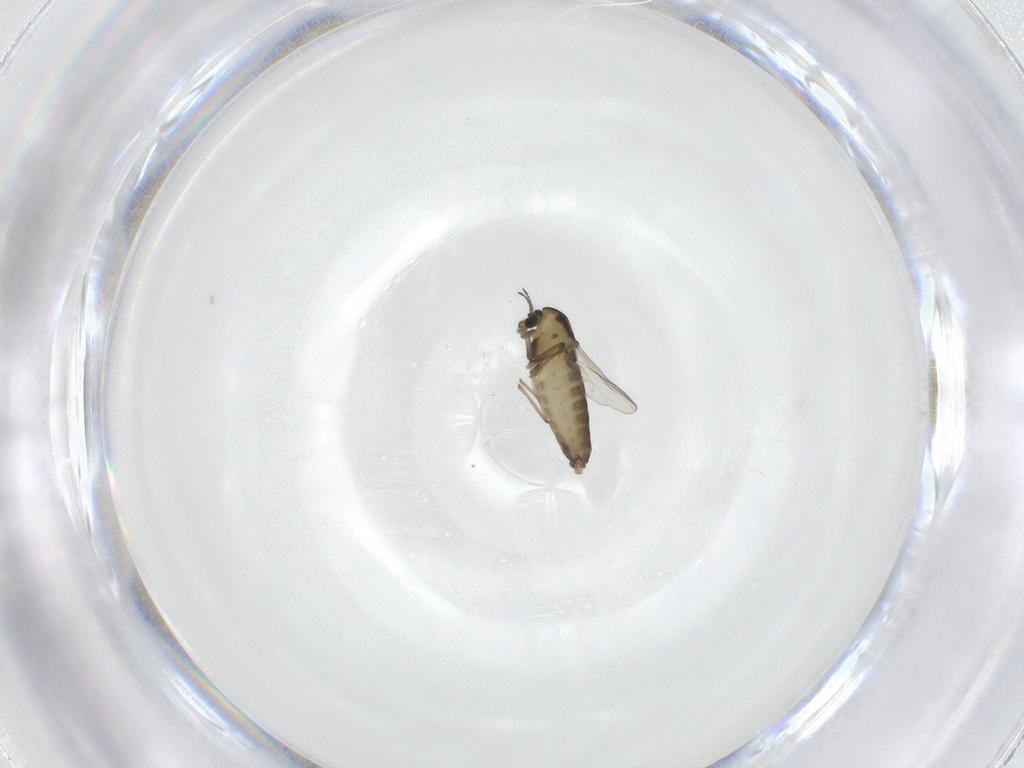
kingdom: Animalia
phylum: Arthropoda
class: Insecta
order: Diptera
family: Chironomidae
